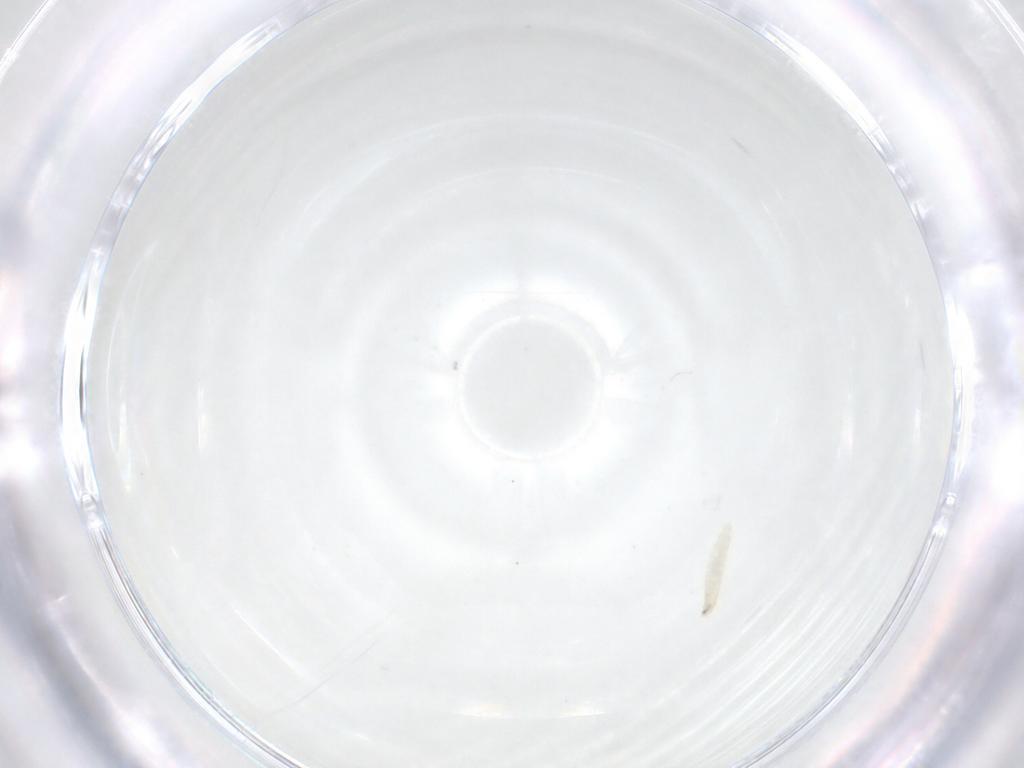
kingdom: Animalia
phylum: Arthropoda
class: Insecta
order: Diptera
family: Tachinidae
